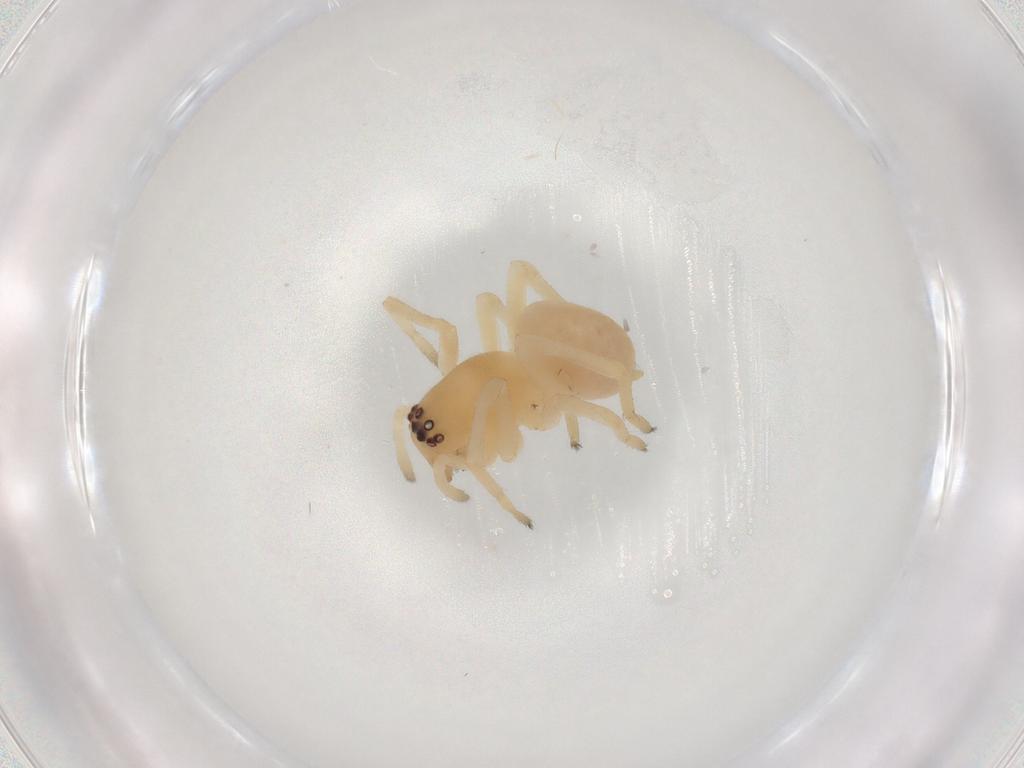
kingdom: Animalia
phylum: Arthropoda
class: Arachnida
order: Araneae
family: Cheiracanthiidae
